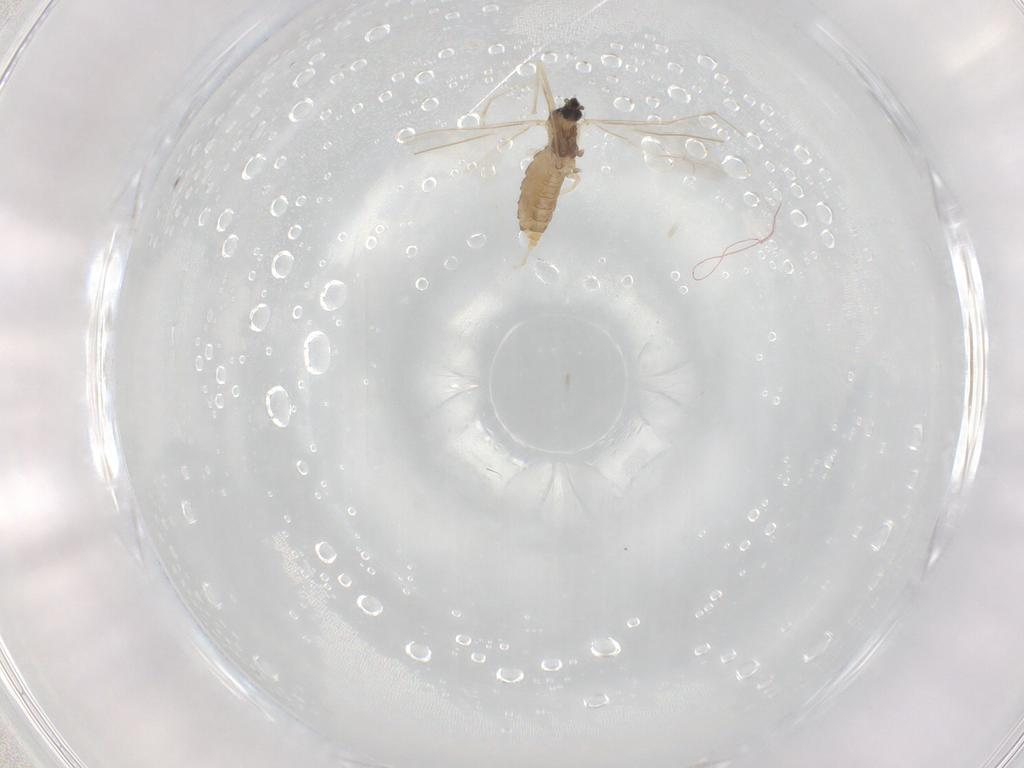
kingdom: Animalia
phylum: Arthropoda
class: Insecta
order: Diptera
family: Cecidomyiidae
